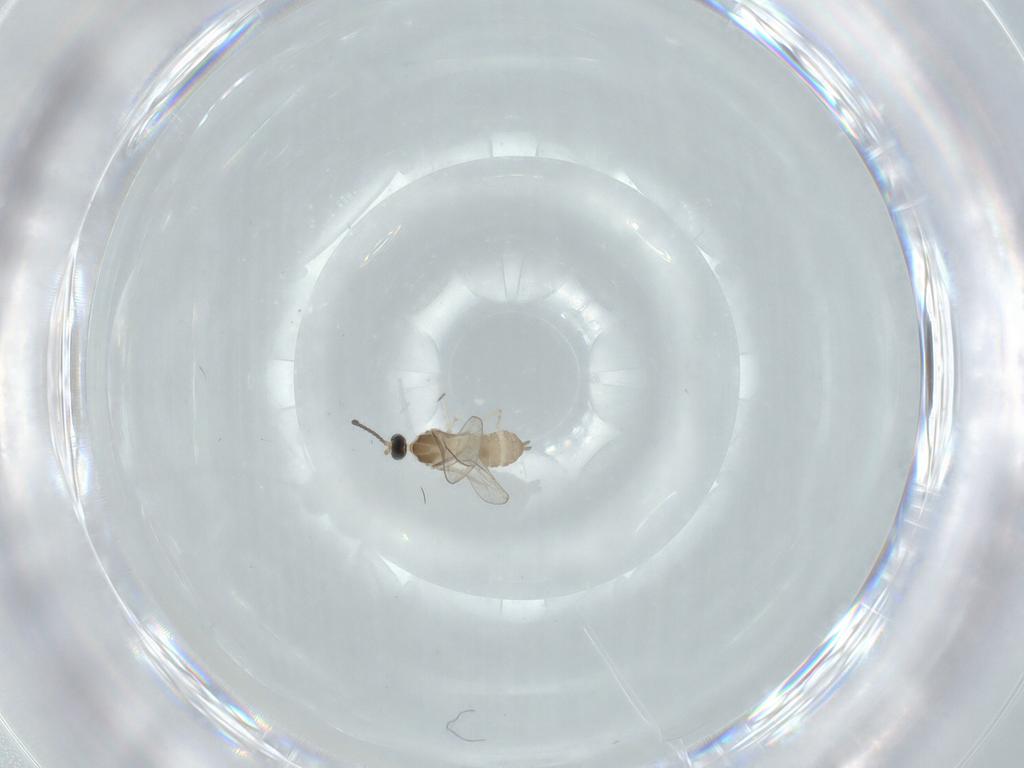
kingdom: Animalia
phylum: Arthropoda
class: Insecta
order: Diptera
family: Cecidomyiidae
